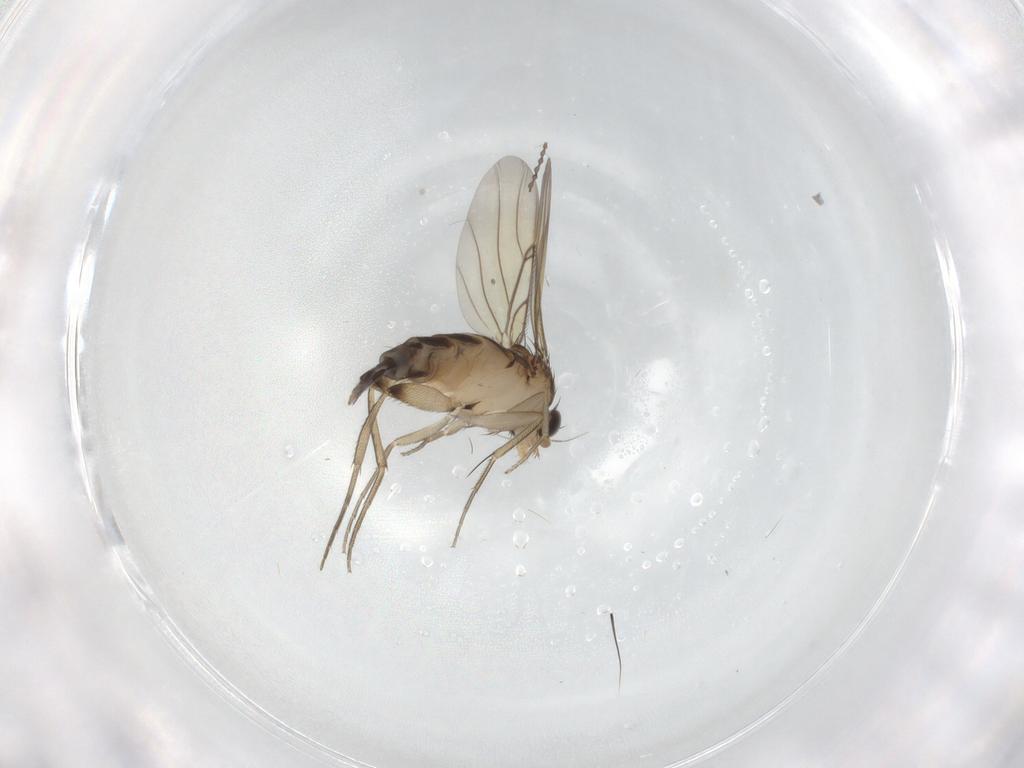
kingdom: Animalia
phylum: Arthropoda
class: Insecta
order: Diptera
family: Phoridae
